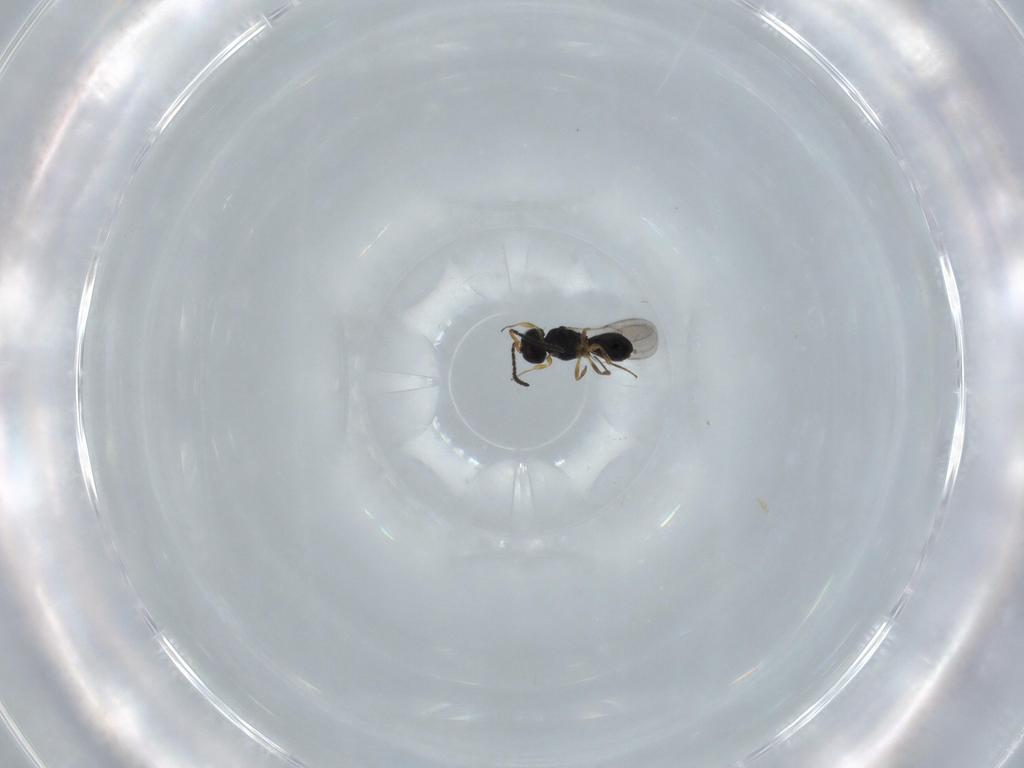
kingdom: Animalia
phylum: Arthropoda
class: Insecta
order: Hymenoptera
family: Scelionidae
